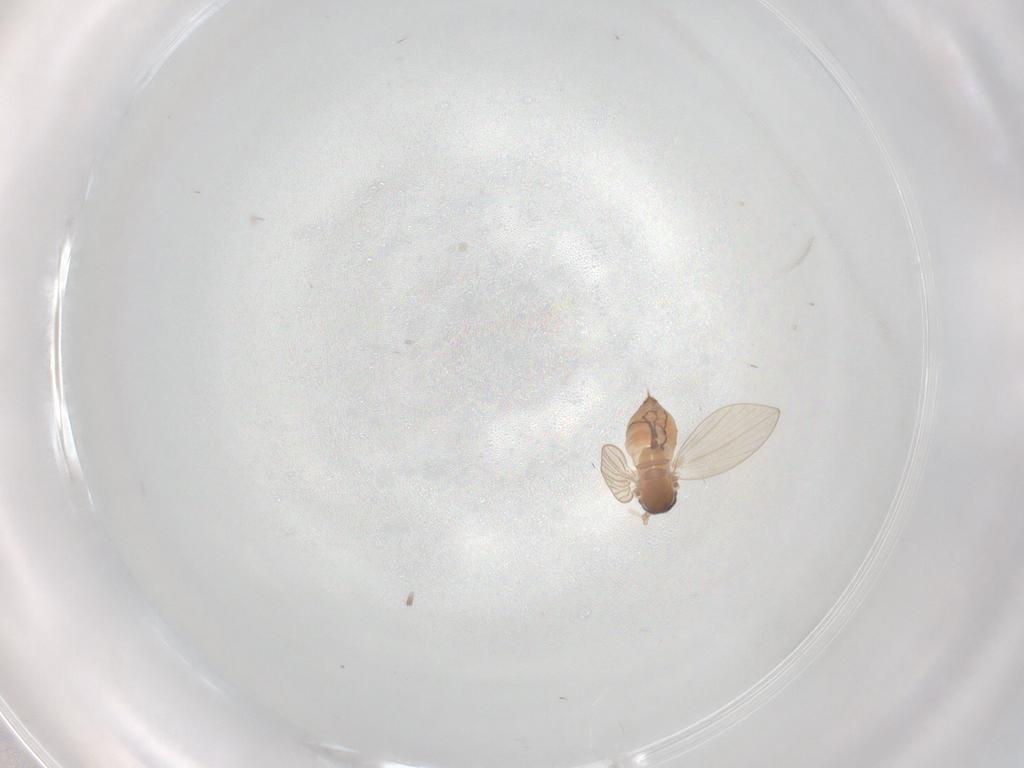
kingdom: Animalia
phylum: Arthropoda
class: Insecta
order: Diptera
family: Psychodidae
